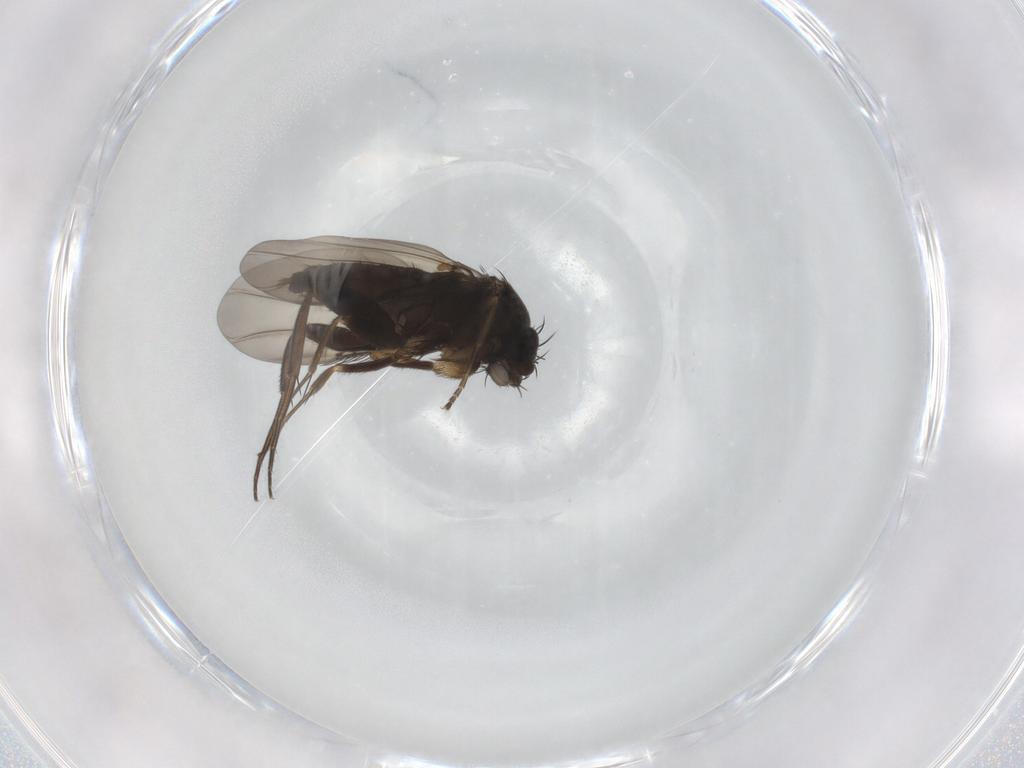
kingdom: Animalia
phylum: Arthropoda
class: Insecta
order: Diptera
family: Phoridae
